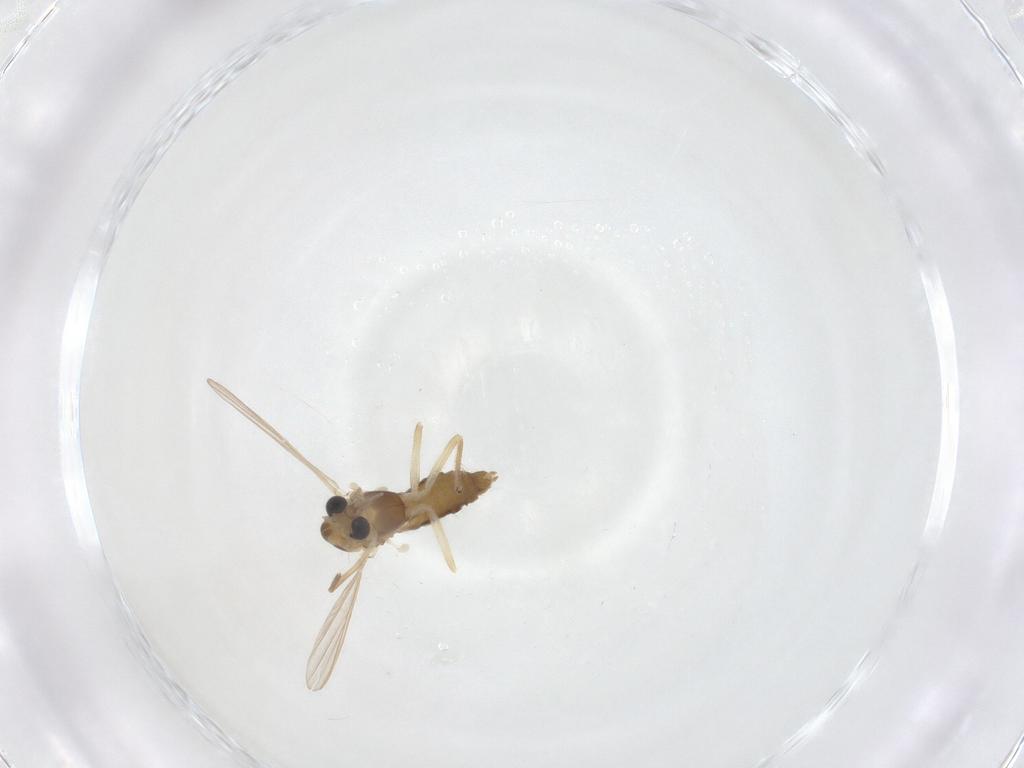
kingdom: Animalia
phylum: Arthropoda
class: Insecta
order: Diptera
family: Chironomidae
